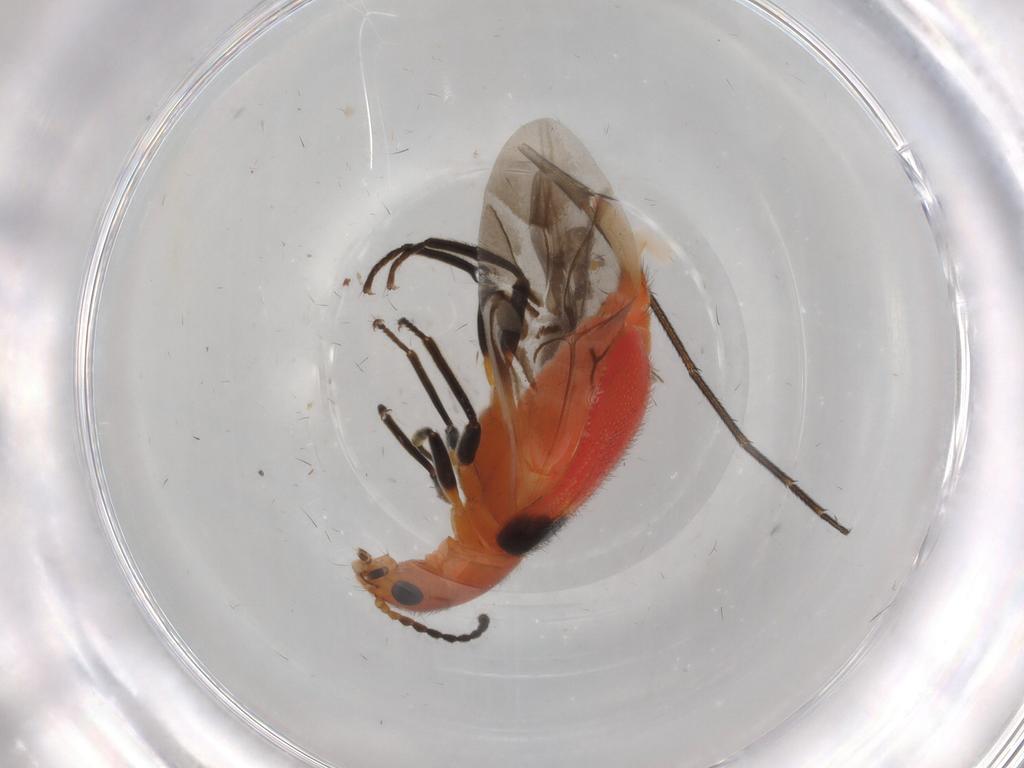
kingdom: Animalia
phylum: Arthropoda
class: Insecta
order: Coleoptera
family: Melyridae
